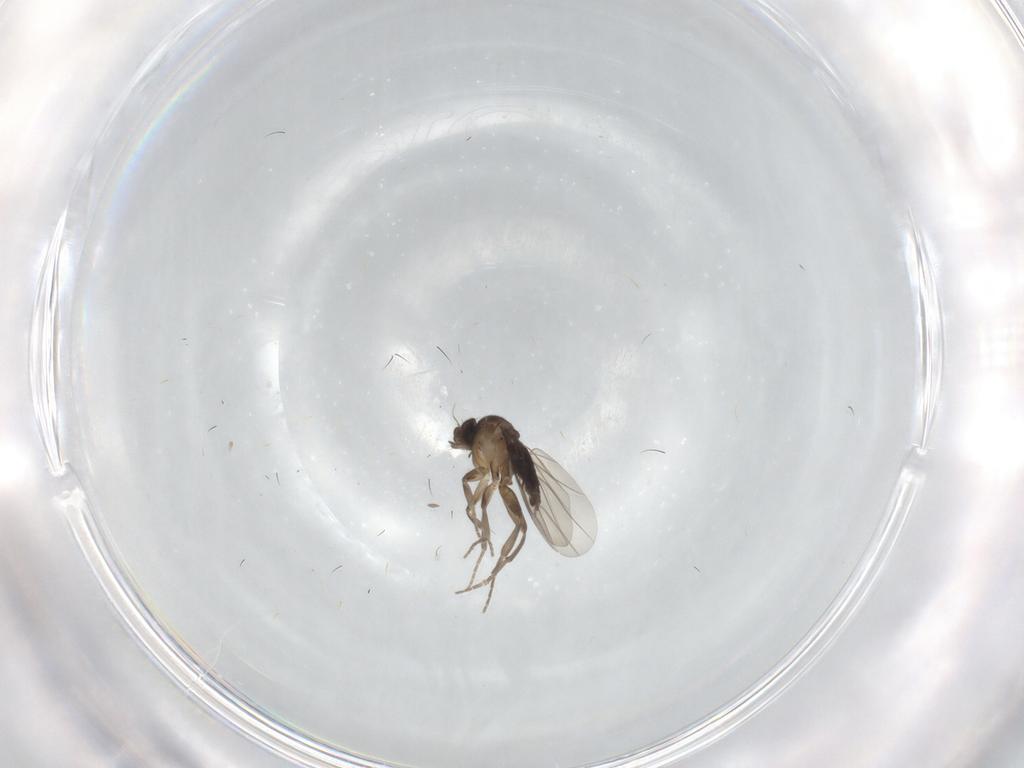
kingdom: Animalia
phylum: Arthropoda
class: Insecta
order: Diptera
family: Phoridae
